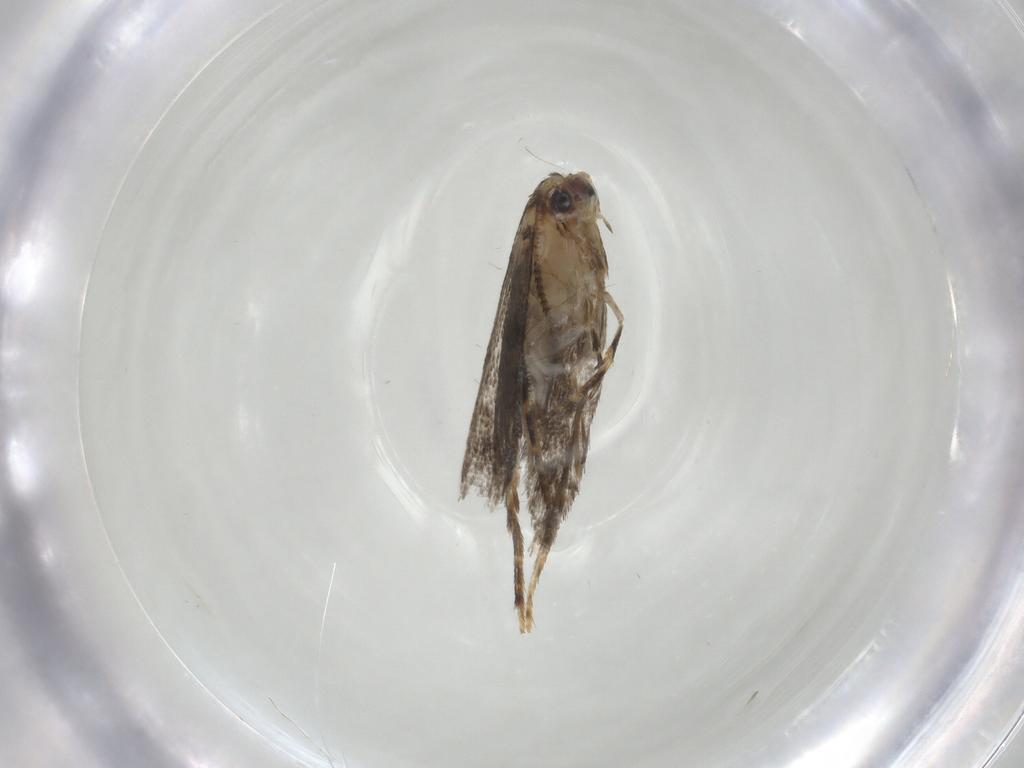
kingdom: Animalia
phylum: Arthropoda
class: Insecta
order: Lepidoptera
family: Tineidae
